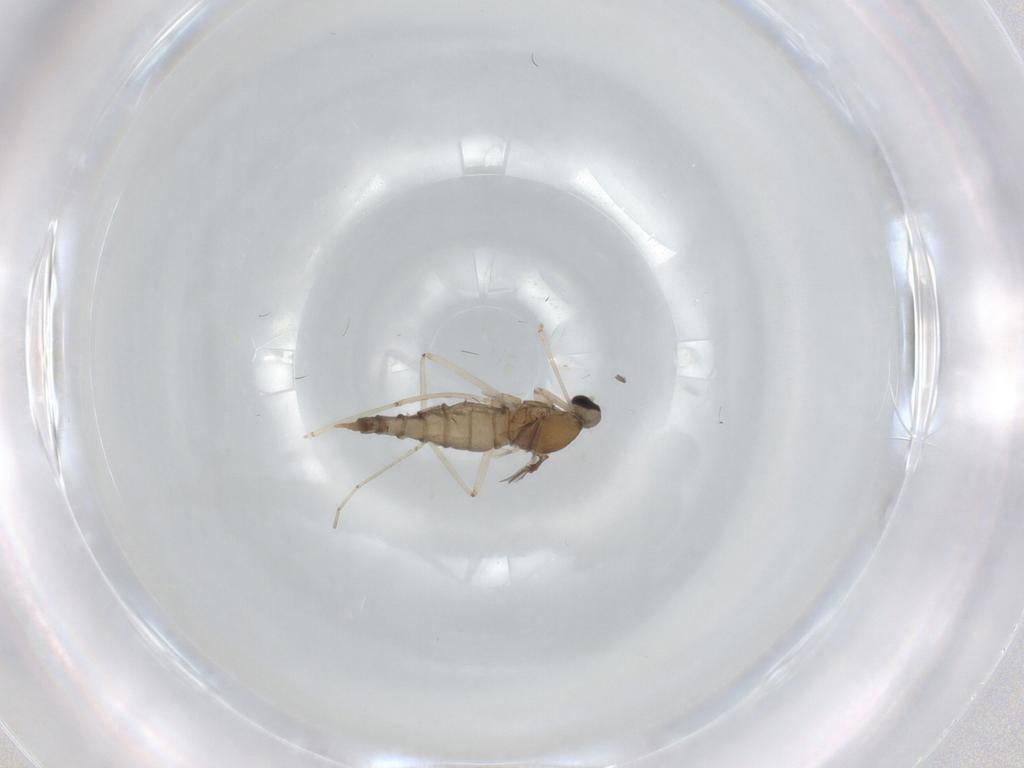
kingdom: Animalia
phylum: Arthropoda
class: Insecta
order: Diptera
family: Cecidomyiidae
